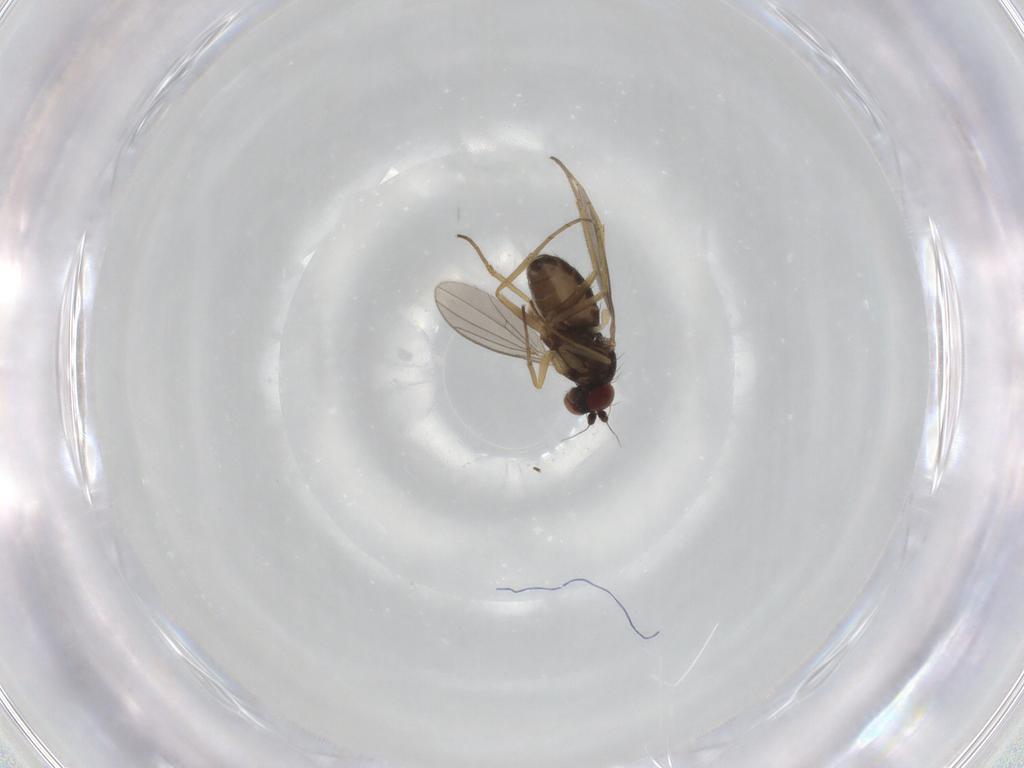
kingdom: Animalia
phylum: Arthropoda
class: Insecta
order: Diptera
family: Dolichopodidae
